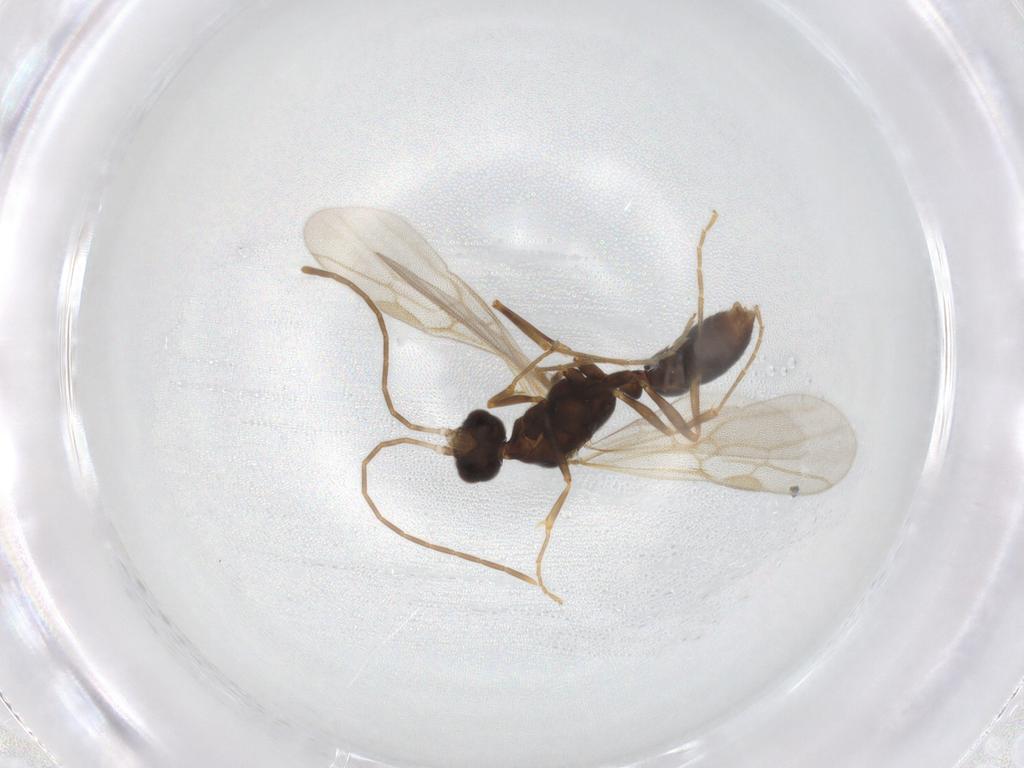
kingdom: Animalia
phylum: Arthropoda
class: Insecta
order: Hymenoptera
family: Formicidae
